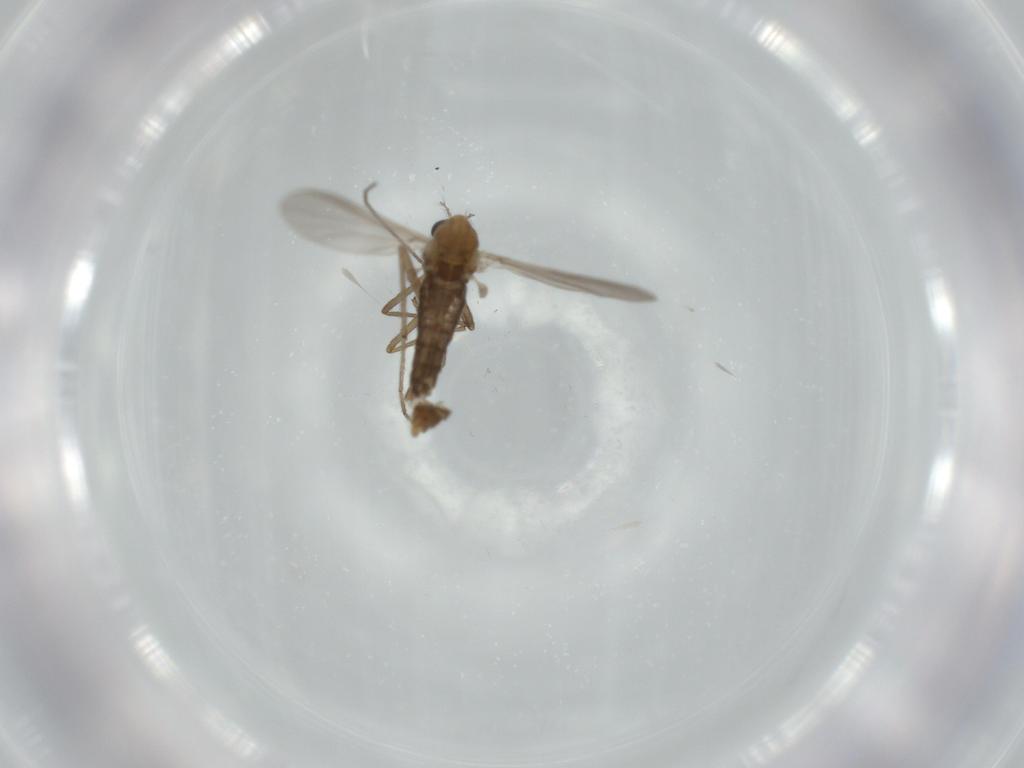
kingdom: Animalia
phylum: Arthropoda
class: Insecta
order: Diptera
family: Chironomidae
